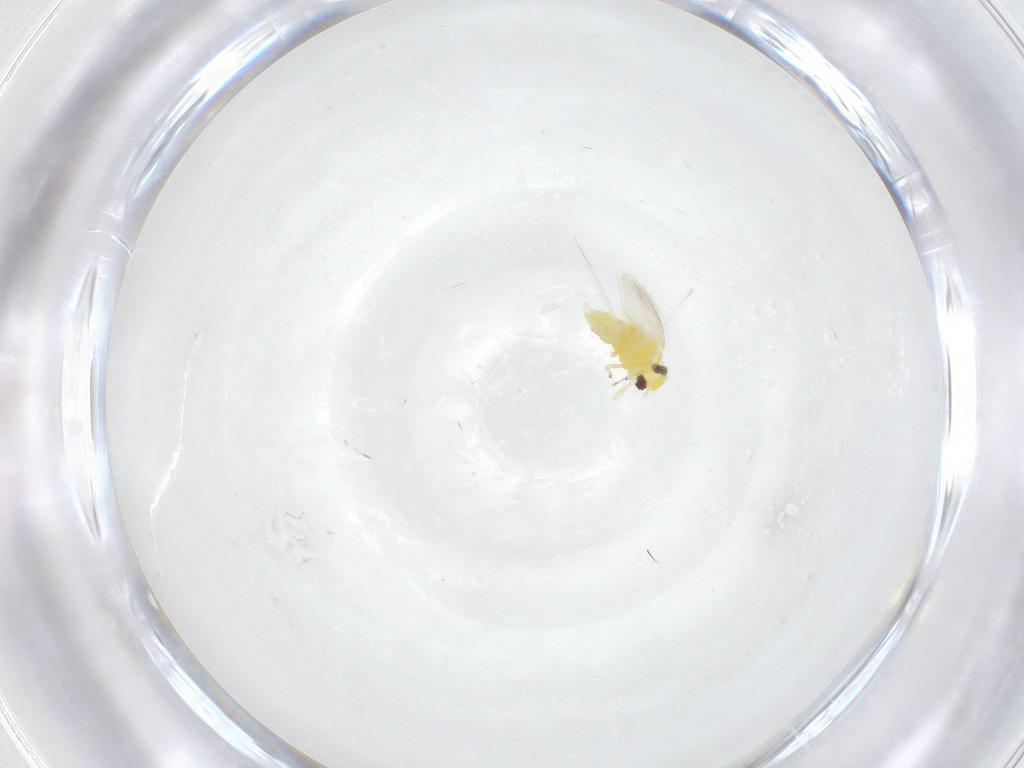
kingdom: Animalia
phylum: Arthropoda
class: Insecta
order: Hemiptera
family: Aleyrodidae
